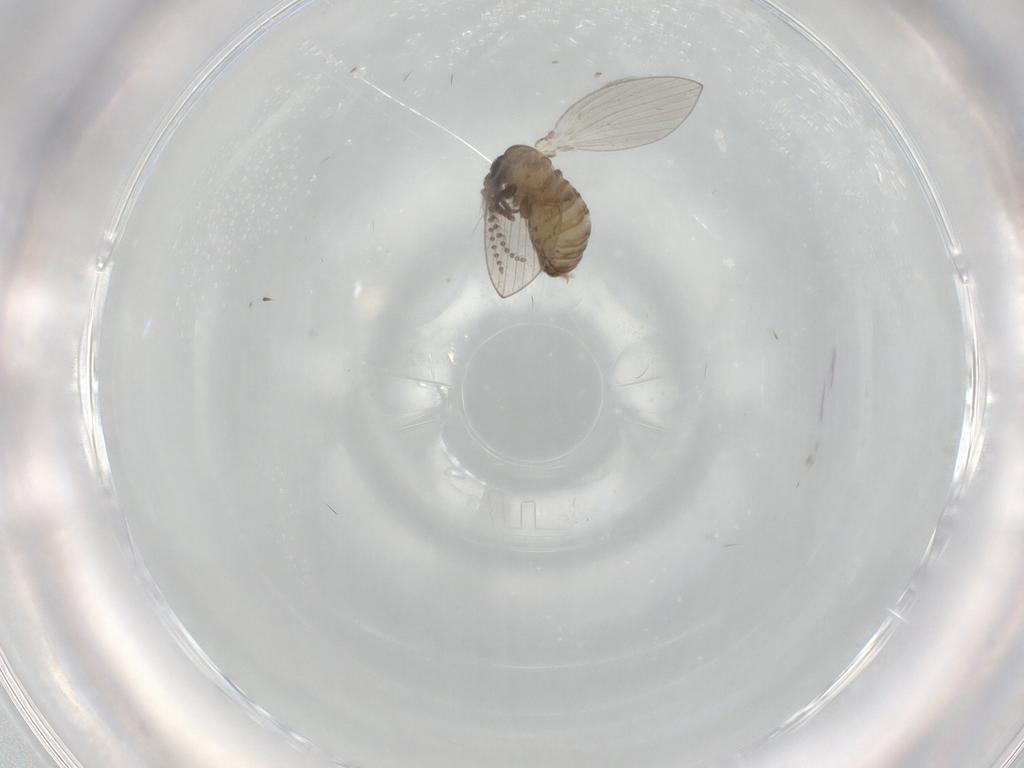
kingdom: Animalia
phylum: Arthropoda
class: Insecta
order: Diptera
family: Psychodidae
